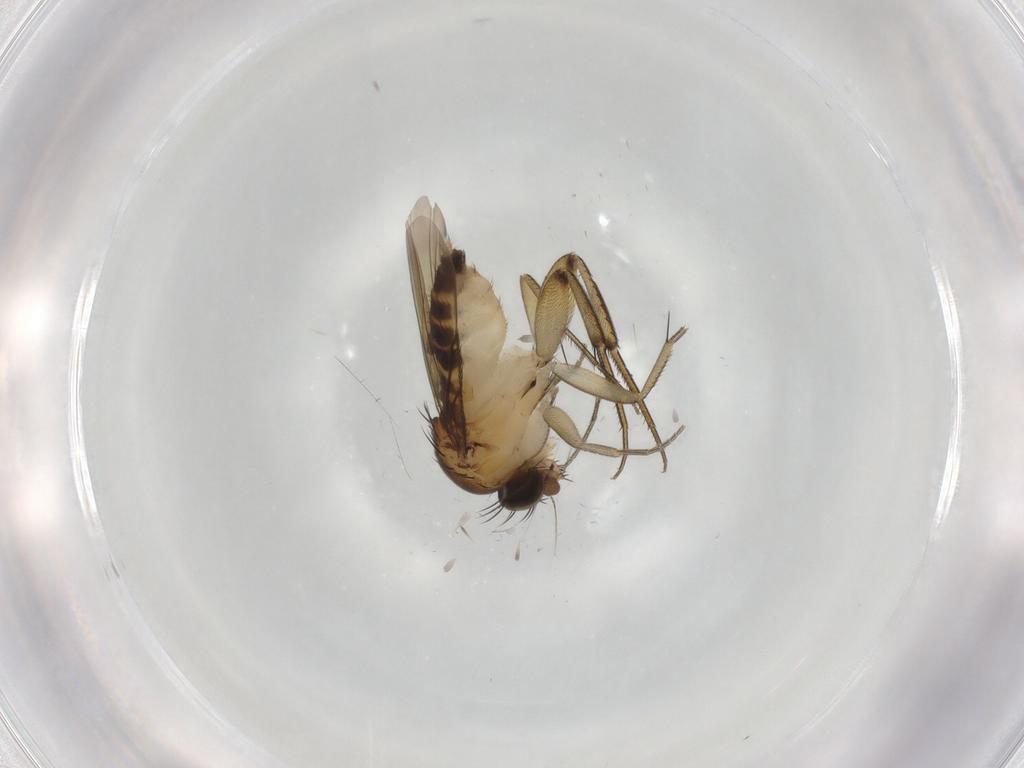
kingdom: Animalia
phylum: Arthropoda
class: Insecta
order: Diptera
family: Phoridae
